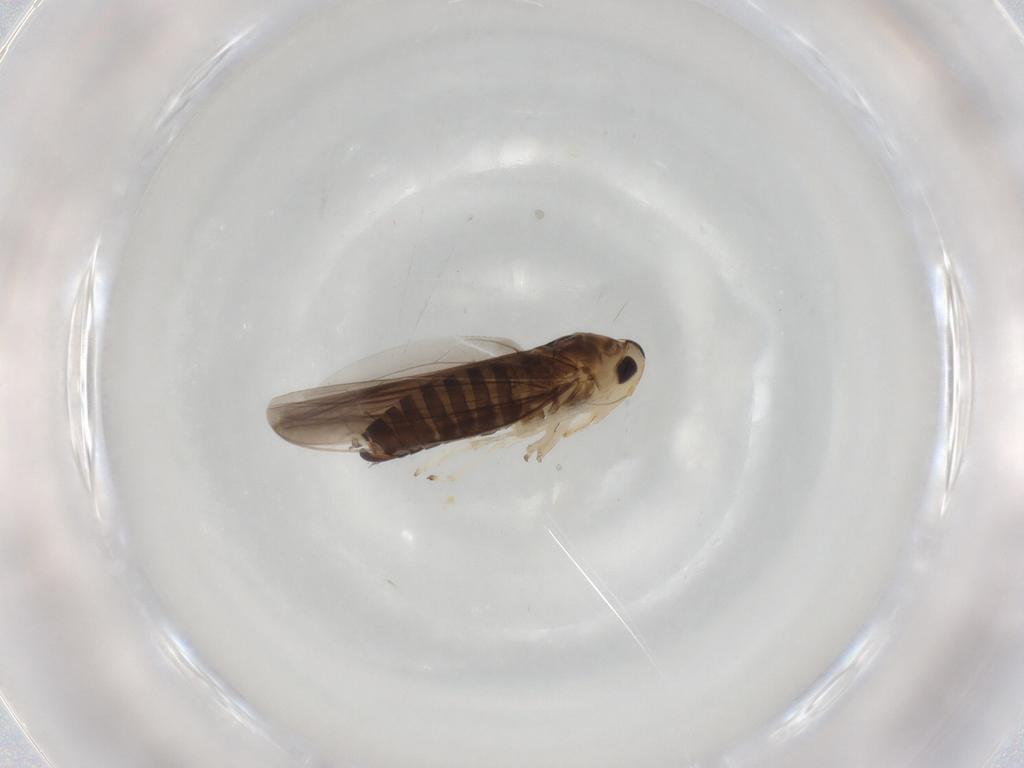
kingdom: Animalia
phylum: Arthropoda
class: Insecta
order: Hemiptera
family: Cicadellidae
